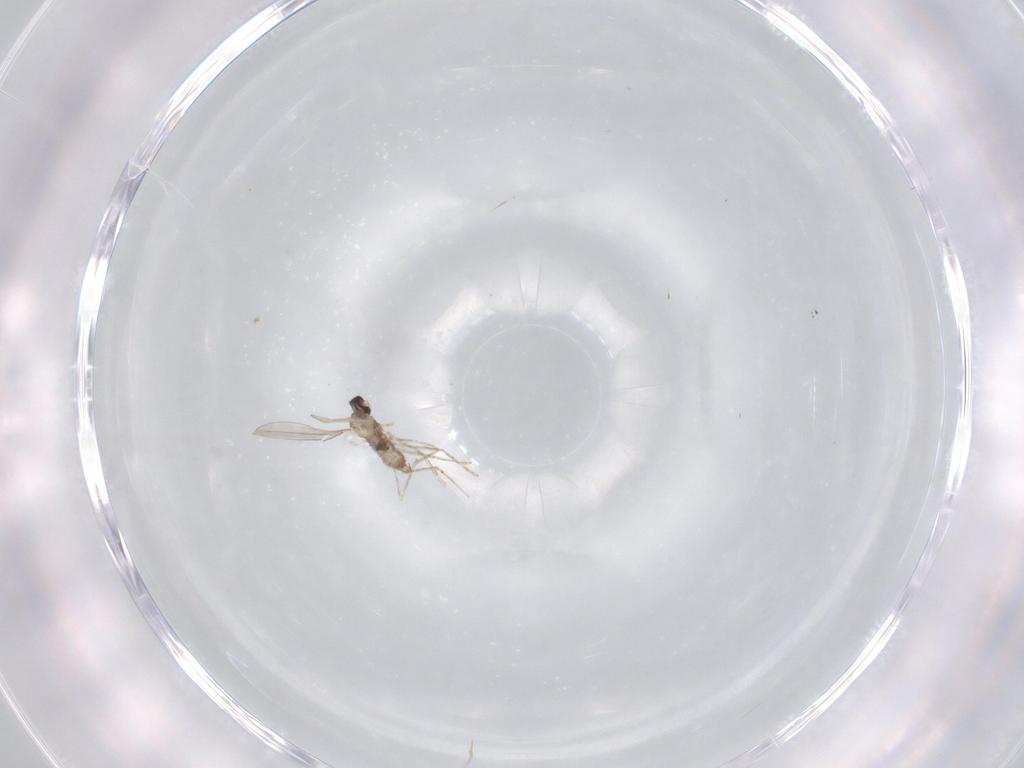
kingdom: Animalia
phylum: Arthropoda
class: Insecta
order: Diptera
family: Cecidomyiidae
